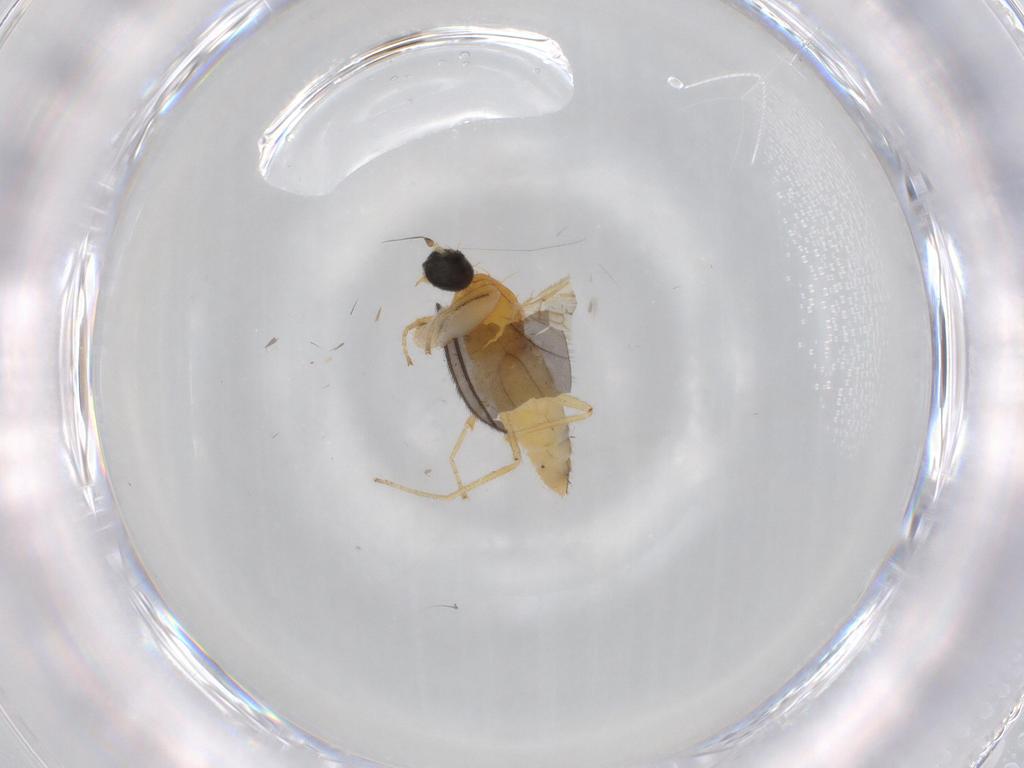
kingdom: Animalia
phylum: Arthropoda
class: Insecta
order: Diptera
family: Empididae
